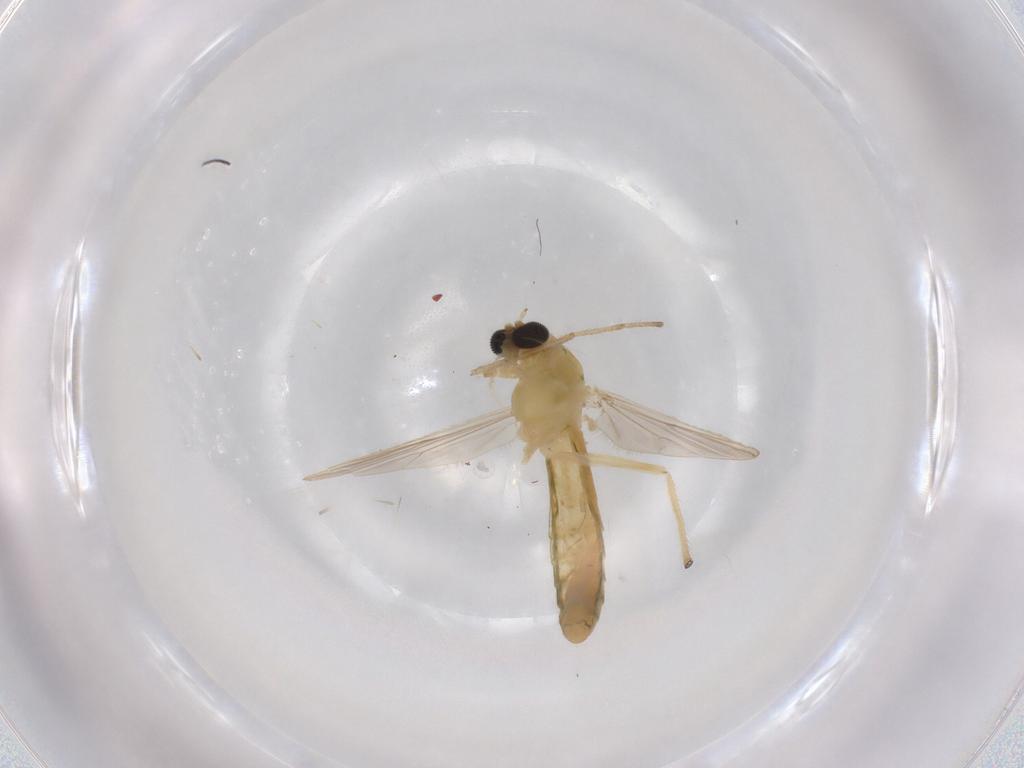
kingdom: Animalia
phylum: Arthropoda
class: Insecta
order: Diptera
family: Chironomidae
